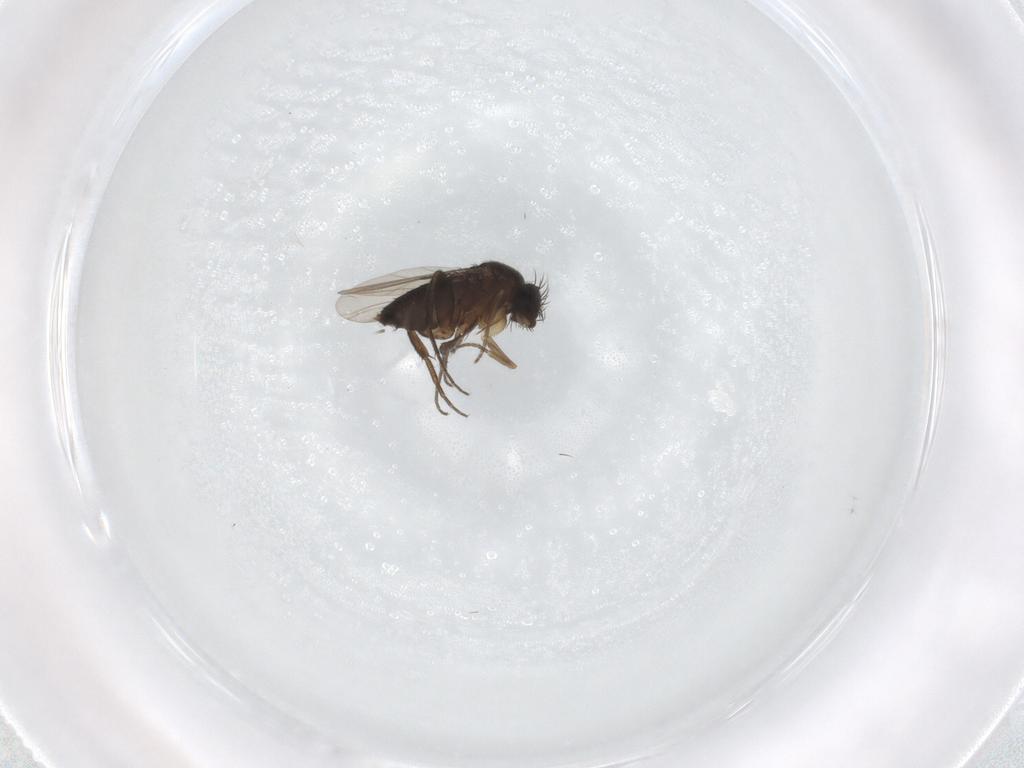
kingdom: Animalia
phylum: Arthropoda
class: Insecta
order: Diptera
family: Phoridae
